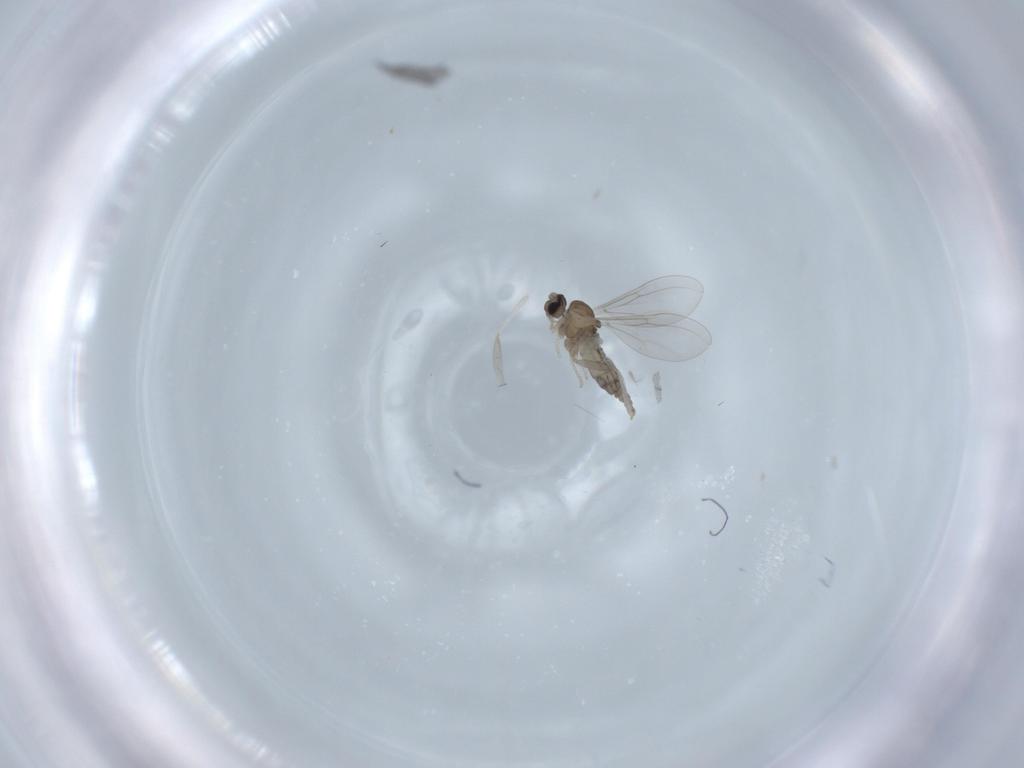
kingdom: Animalia
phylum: Arthropoda
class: Insecta
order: Diptera
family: Cecidomyiidae
